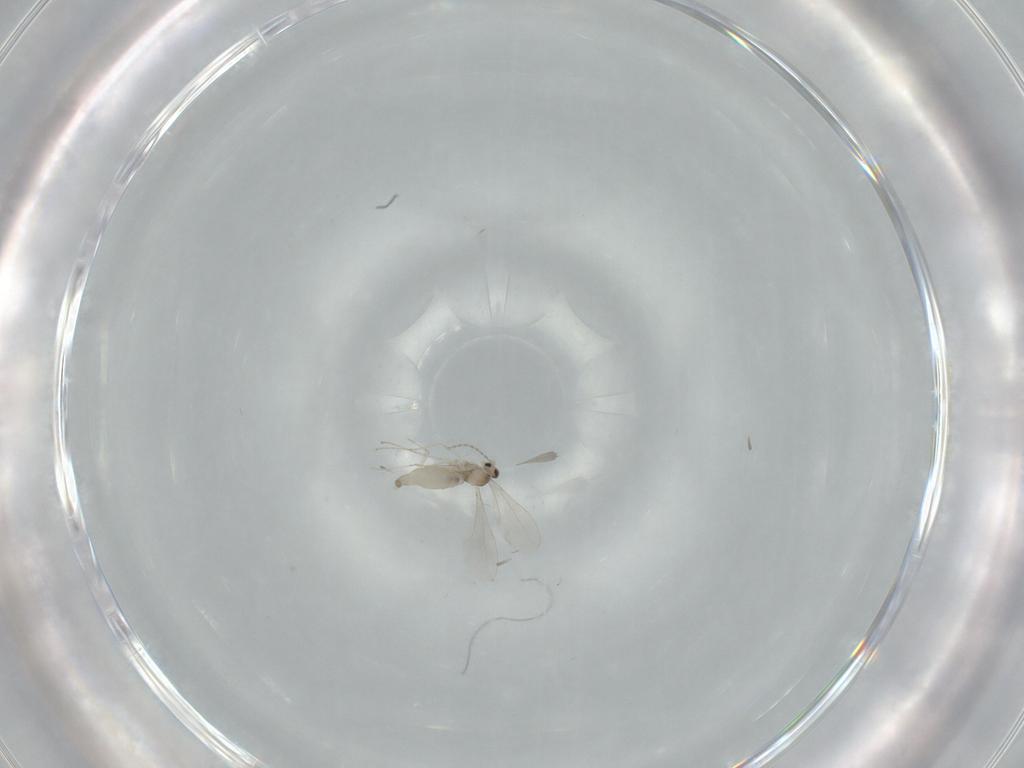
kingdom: Animalia
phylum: Arthropoda
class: Insecta
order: Diptera
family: Cecidomyiidae
